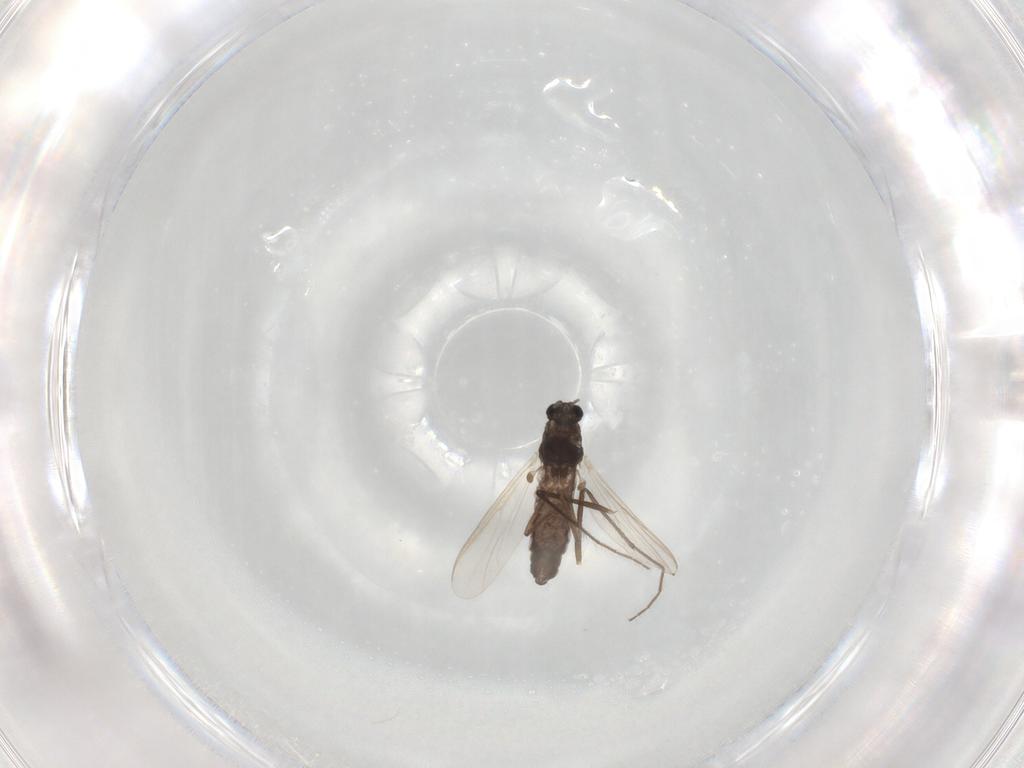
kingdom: Animalia
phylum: Arthropoda
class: Insecta
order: Diptera
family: Chironomidae
